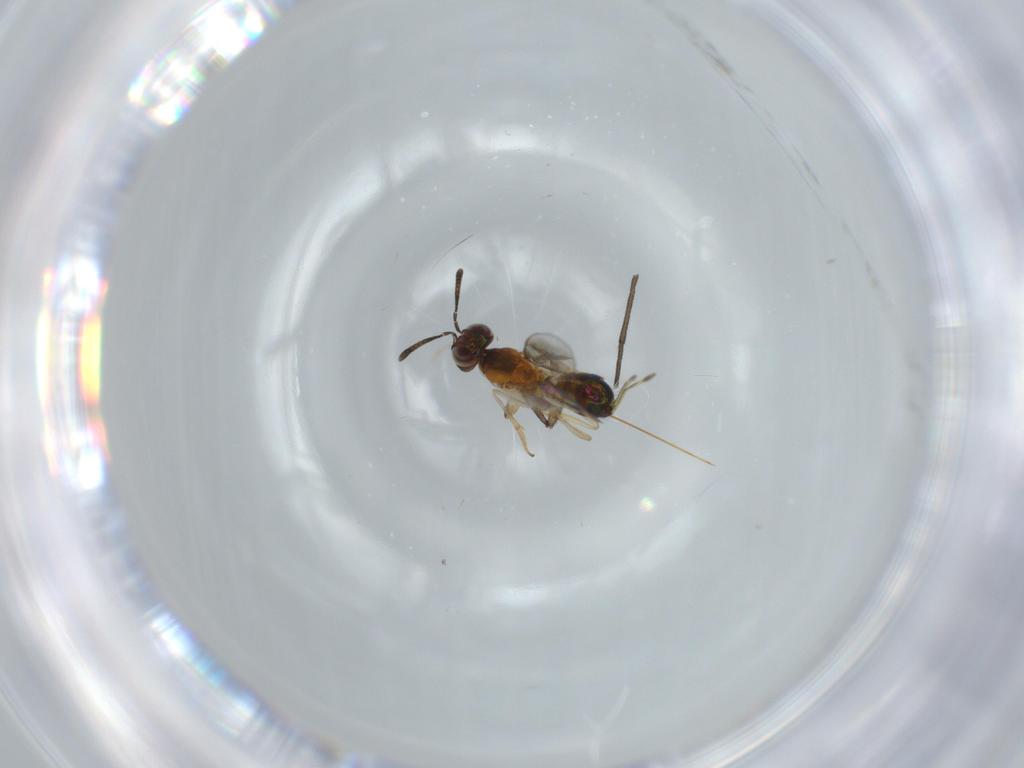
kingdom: Animalia
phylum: Arthropoda
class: Insecta
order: Hymenoptera
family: Pteromalidae
